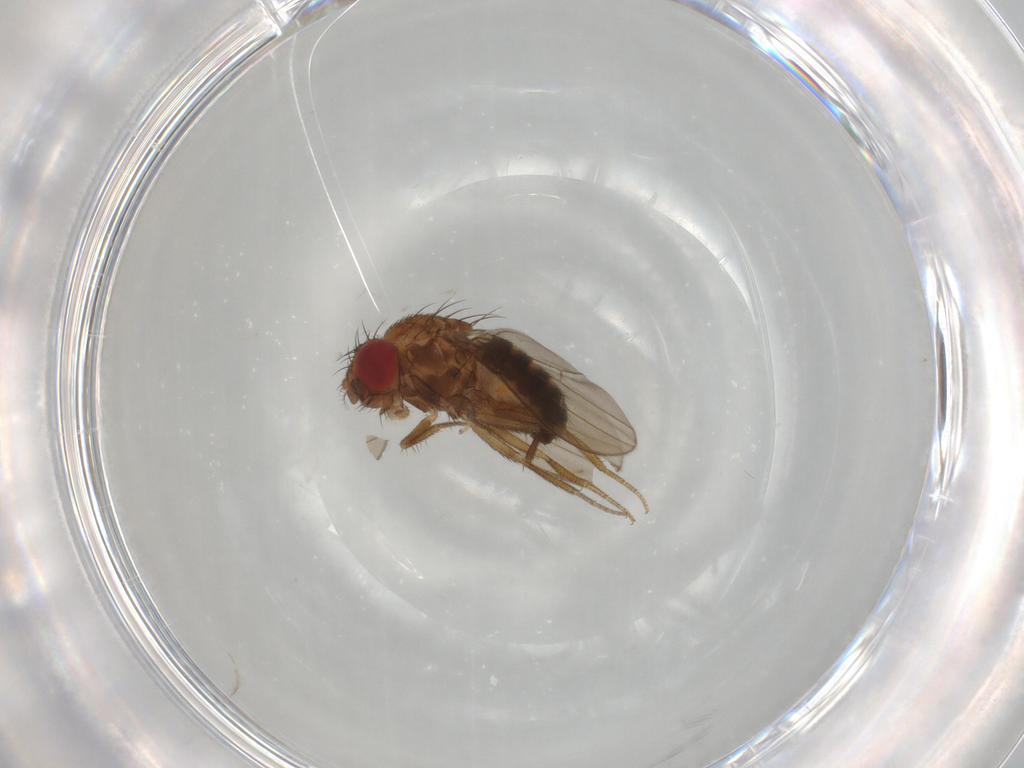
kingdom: Animalia
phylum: Arthropoda
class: Insecta
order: Diptera
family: Drosophilidae
